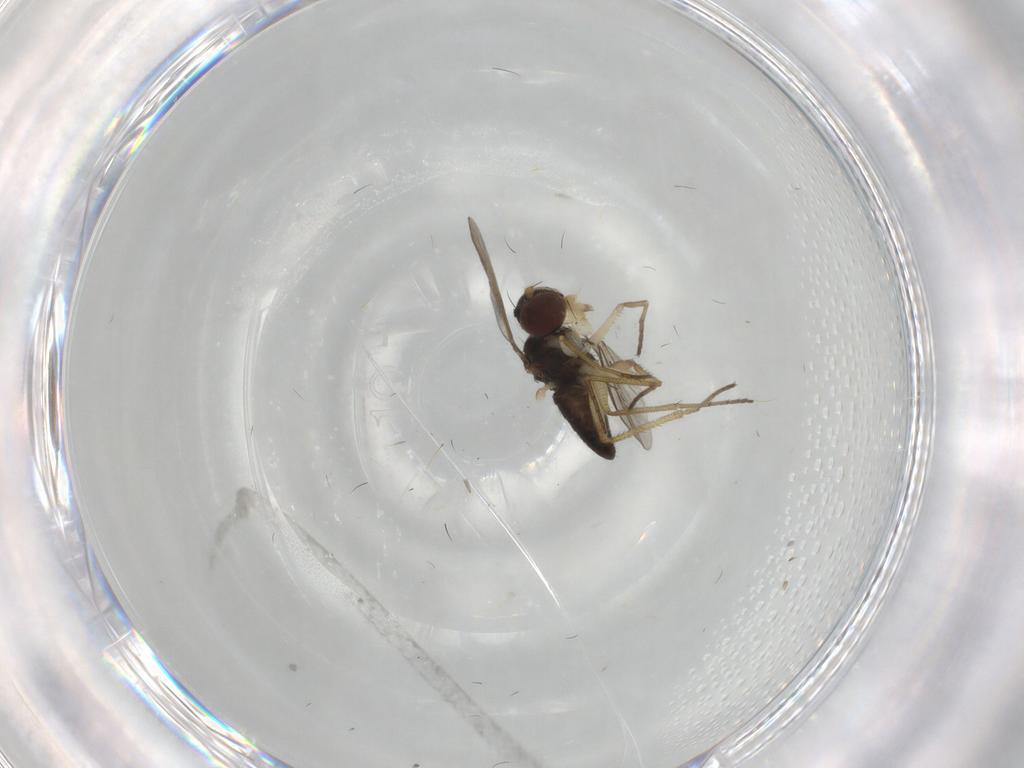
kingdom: Animalia
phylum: Arthropoda
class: Insecta
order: Diptera
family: Dolichopodidae
